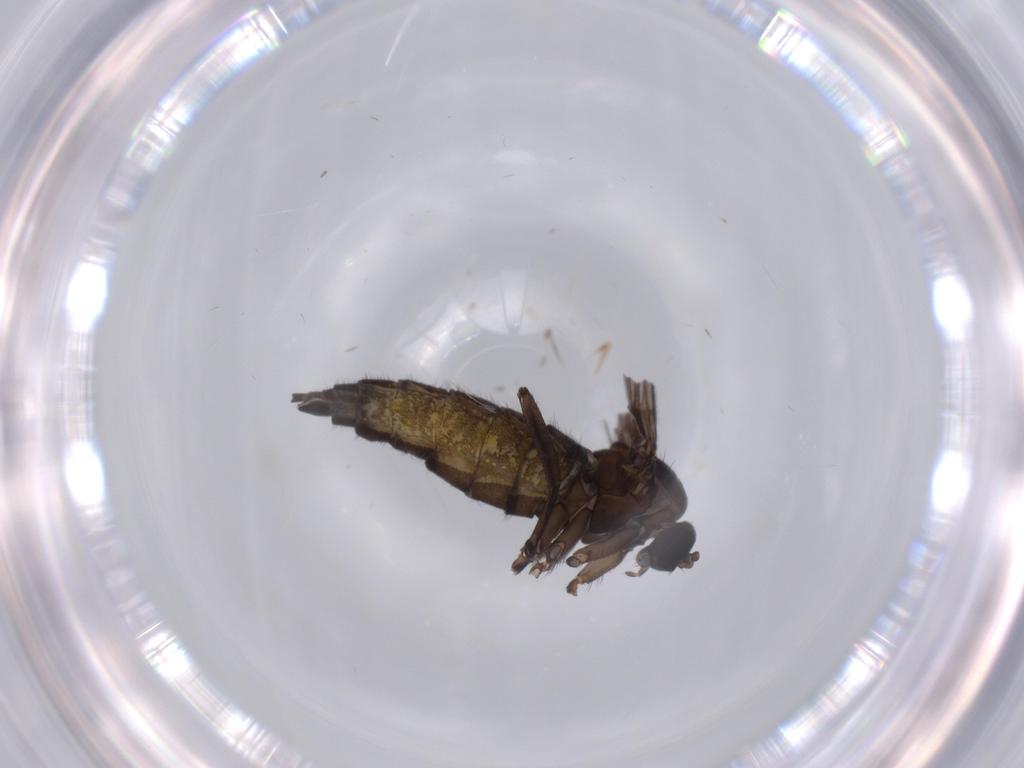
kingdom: Animalia
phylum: Arthropoda
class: Insecta
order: Diptera
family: Sciaridae
